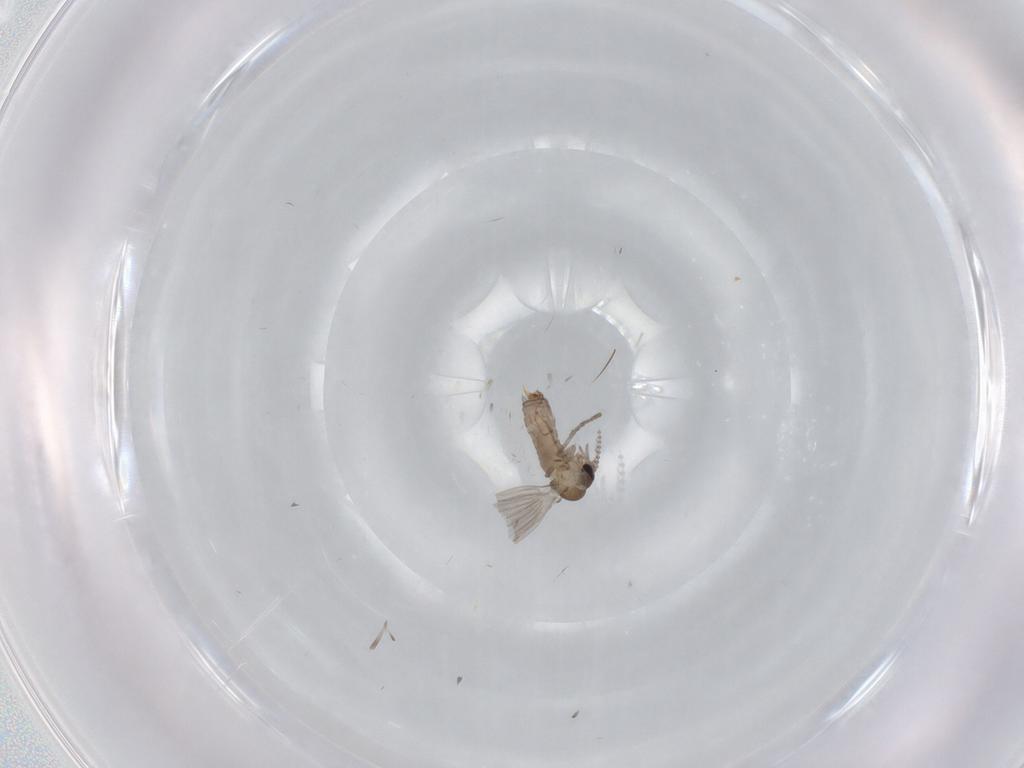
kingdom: Animalia
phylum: Arthropoda
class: Insecta
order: Diptera
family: Psychodidae
